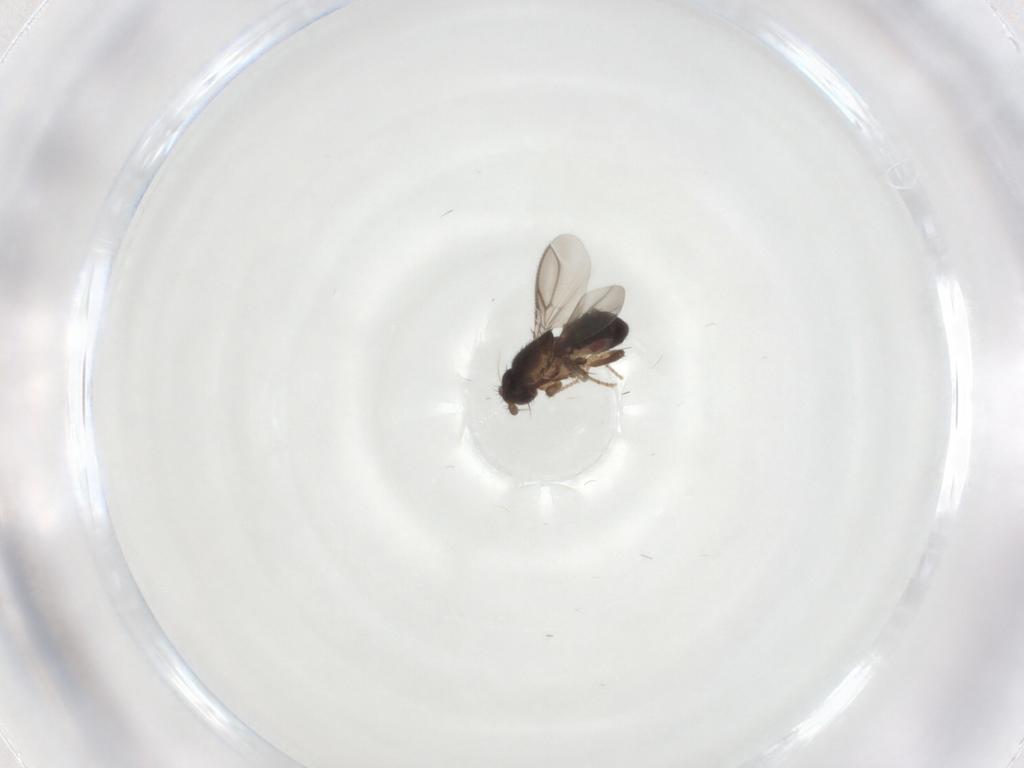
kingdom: Animalia
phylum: Arthropoda
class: Insecta
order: Diptera
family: Psychodidae
